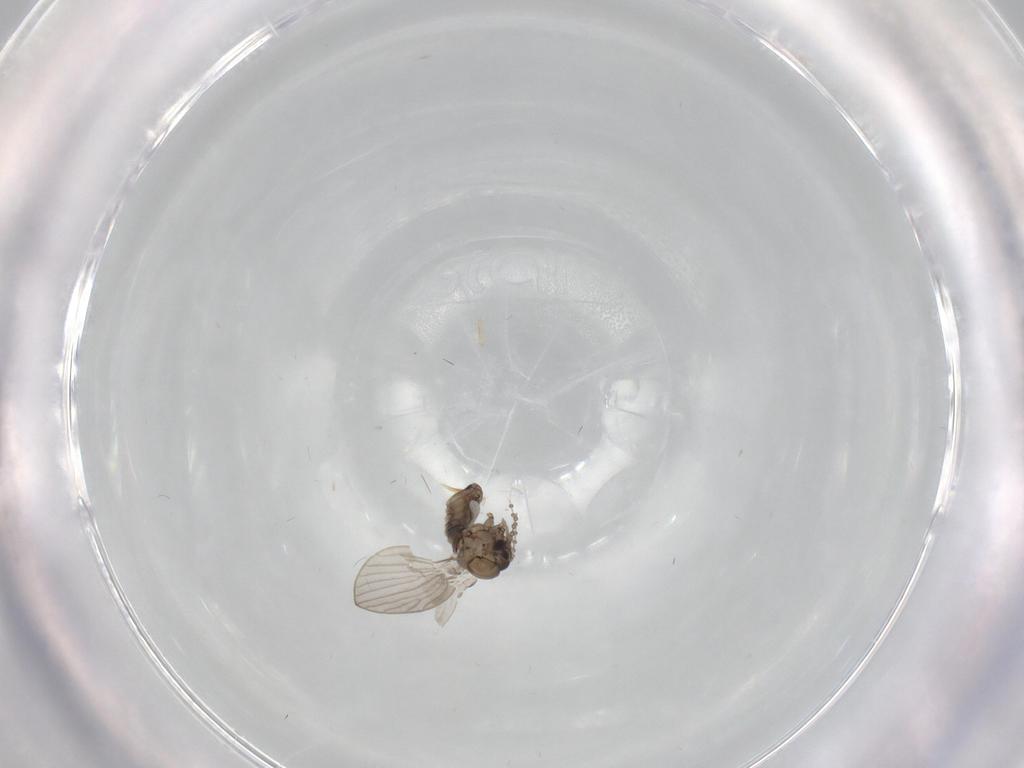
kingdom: Animalia
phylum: Arthropoda
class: Insecta
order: Diptera
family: Psychodidae
